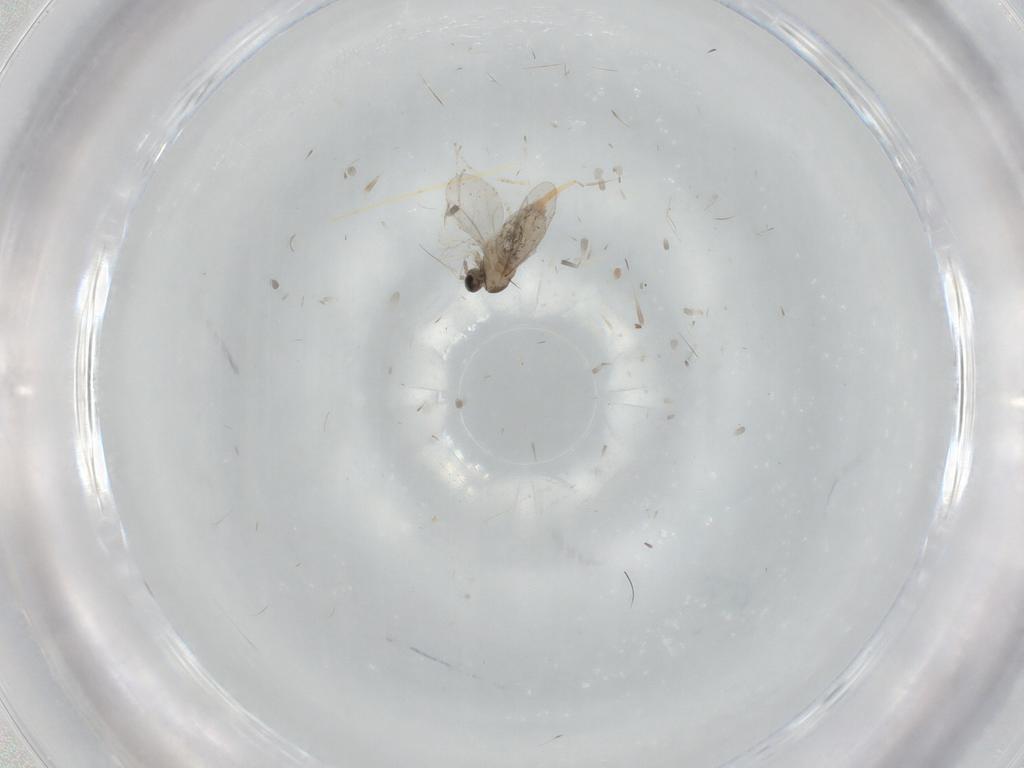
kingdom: Animalia
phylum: Arthropoda
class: Insecta
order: Diptera
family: Cecidomyiidae
